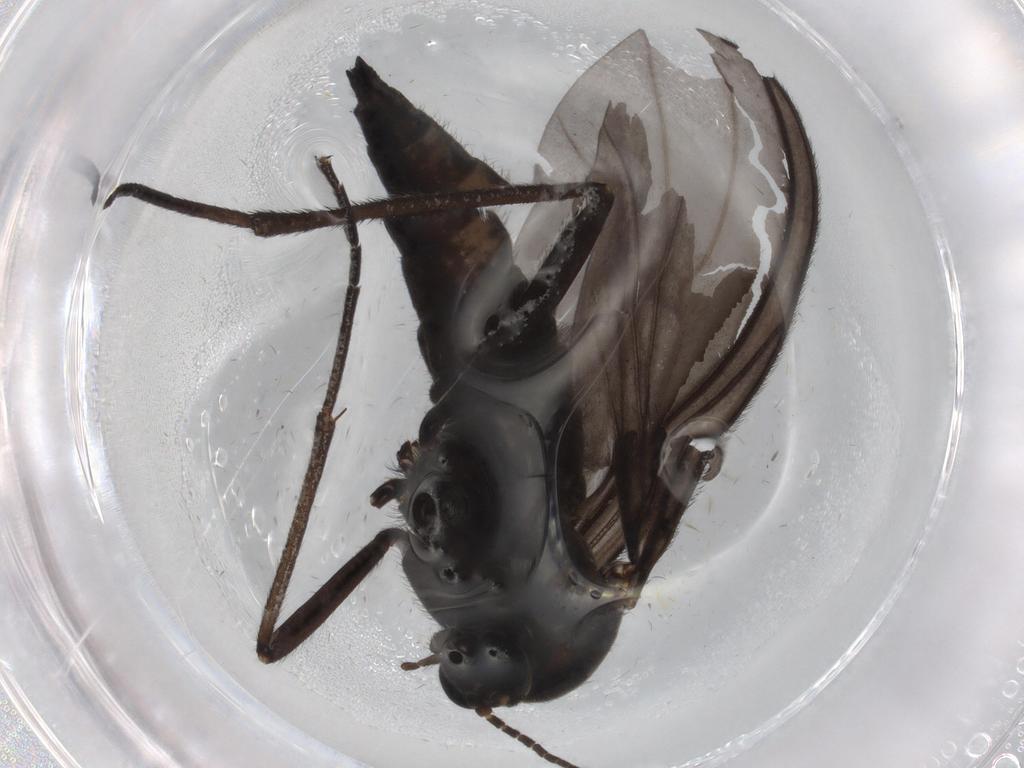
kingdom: Animalia
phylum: Arthropoda
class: Insecta
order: Diptera
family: Sciaridae
